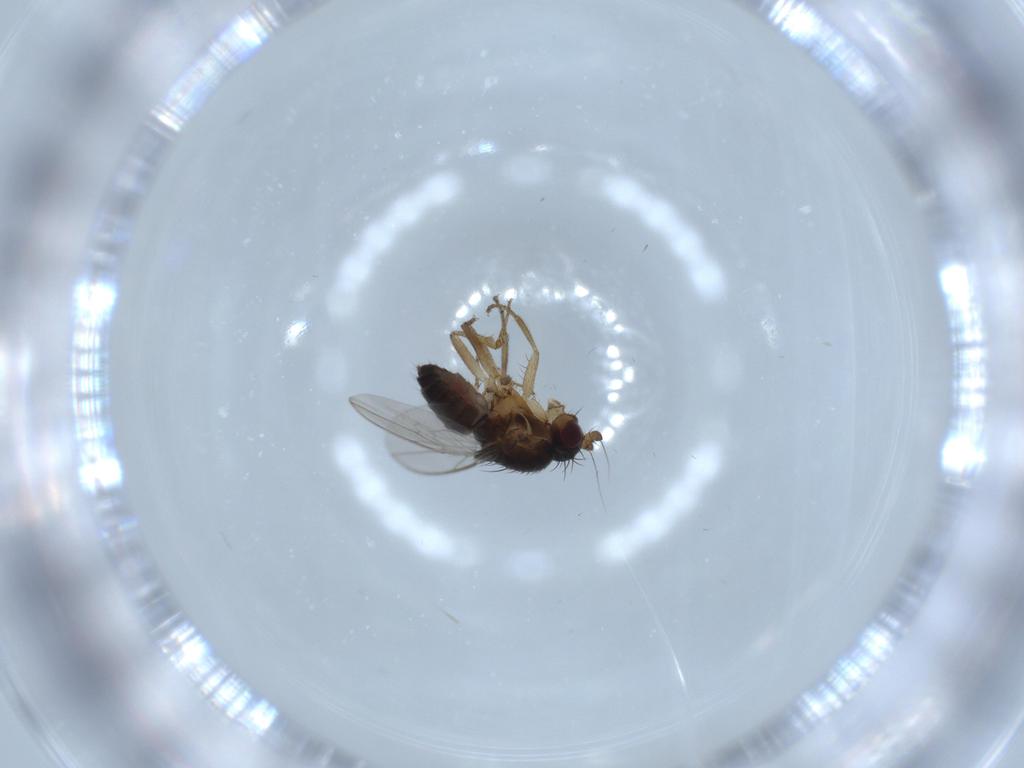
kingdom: Animalia
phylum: Arthropoda
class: Insecta
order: Diptera
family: Sphaeroceridae
